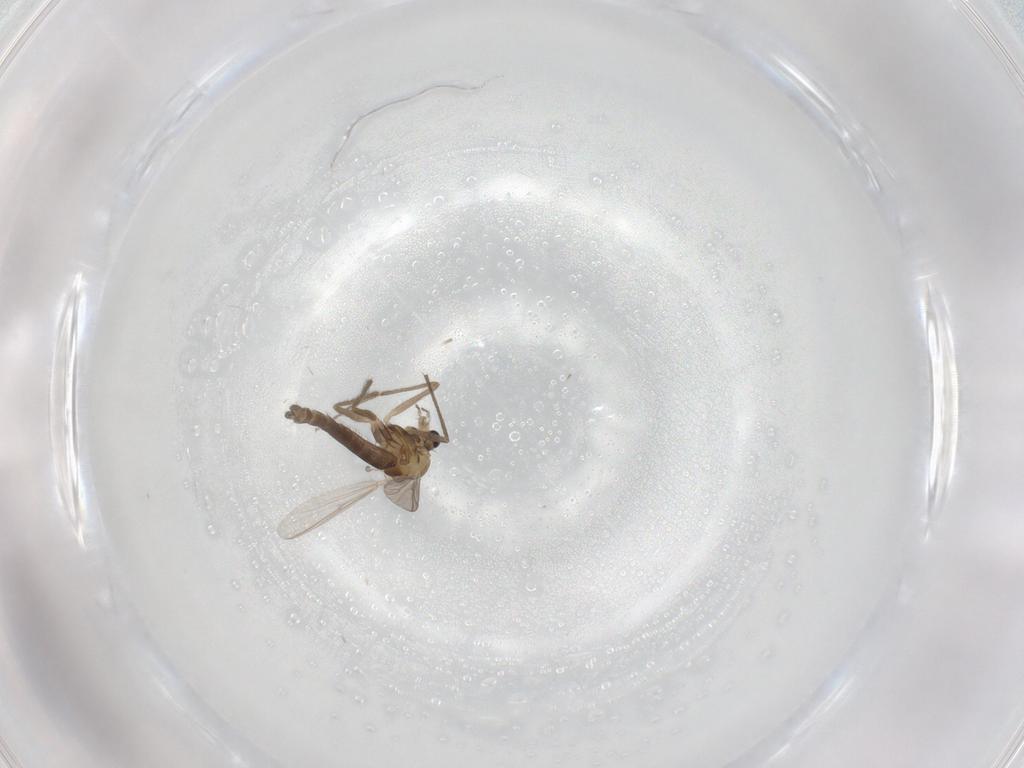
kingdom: Animalia
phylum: Arthropoda
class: Insecta
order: Diptera
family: Chironomidae
